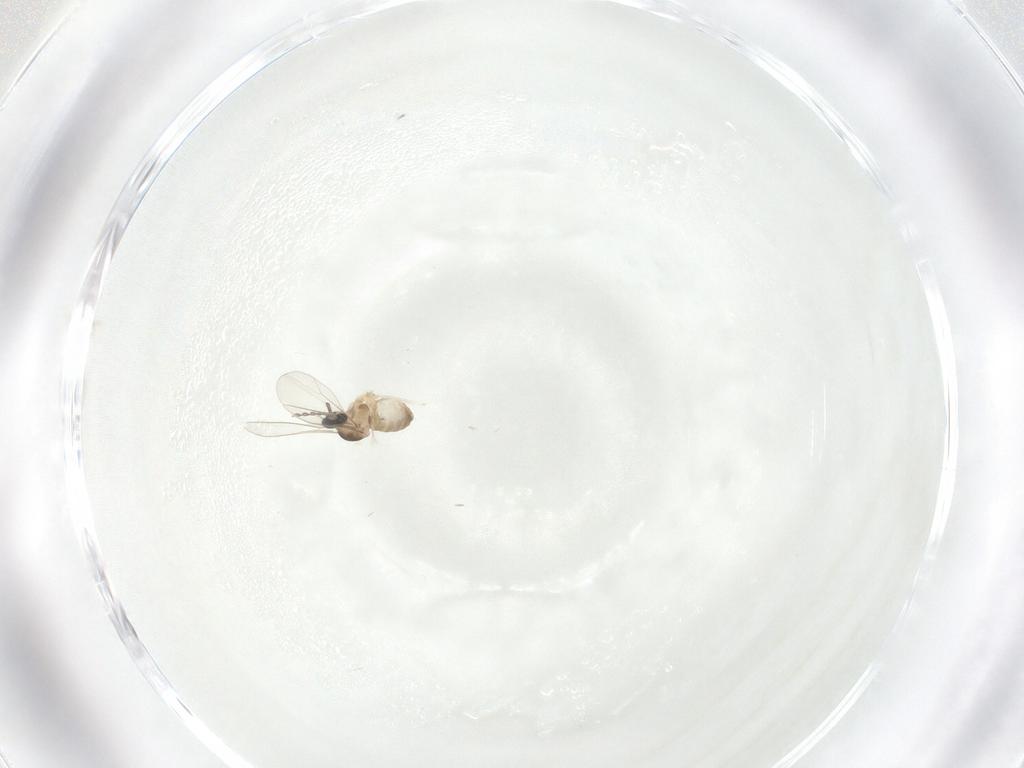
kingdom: Animalia
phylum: Arthropoda
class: Insecta
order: Diptera
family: Cecidomyiidae
